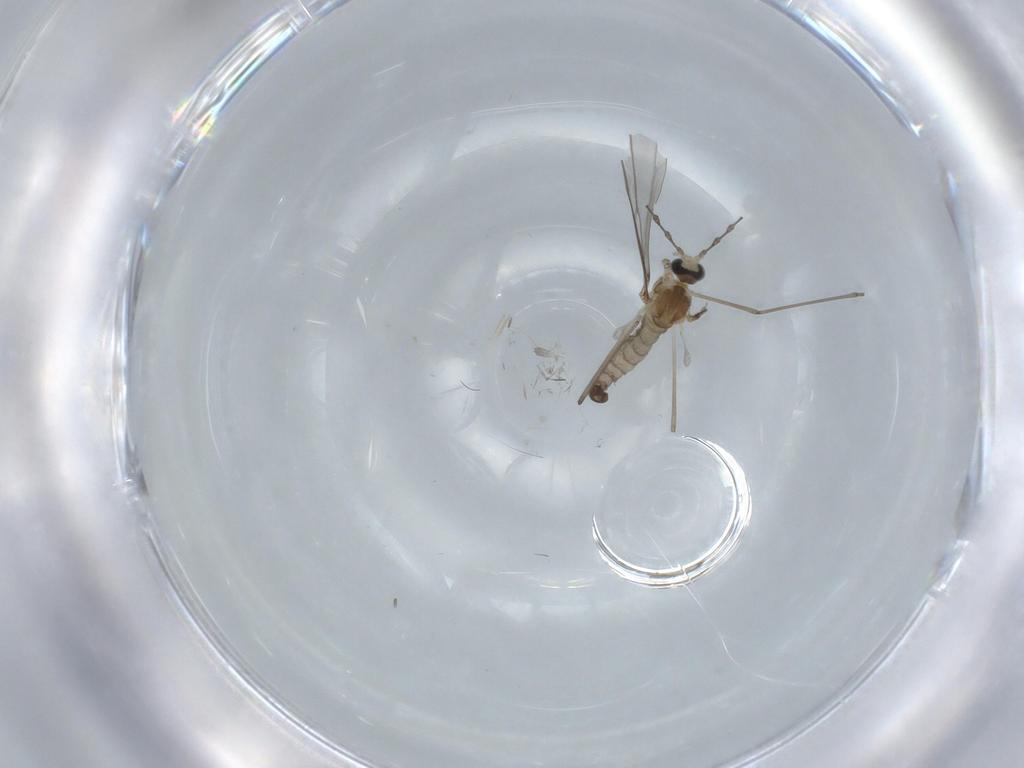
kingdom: Animalia
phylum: Arthropoda
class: Insecta
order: Diptera
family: Cecidomyiidae
